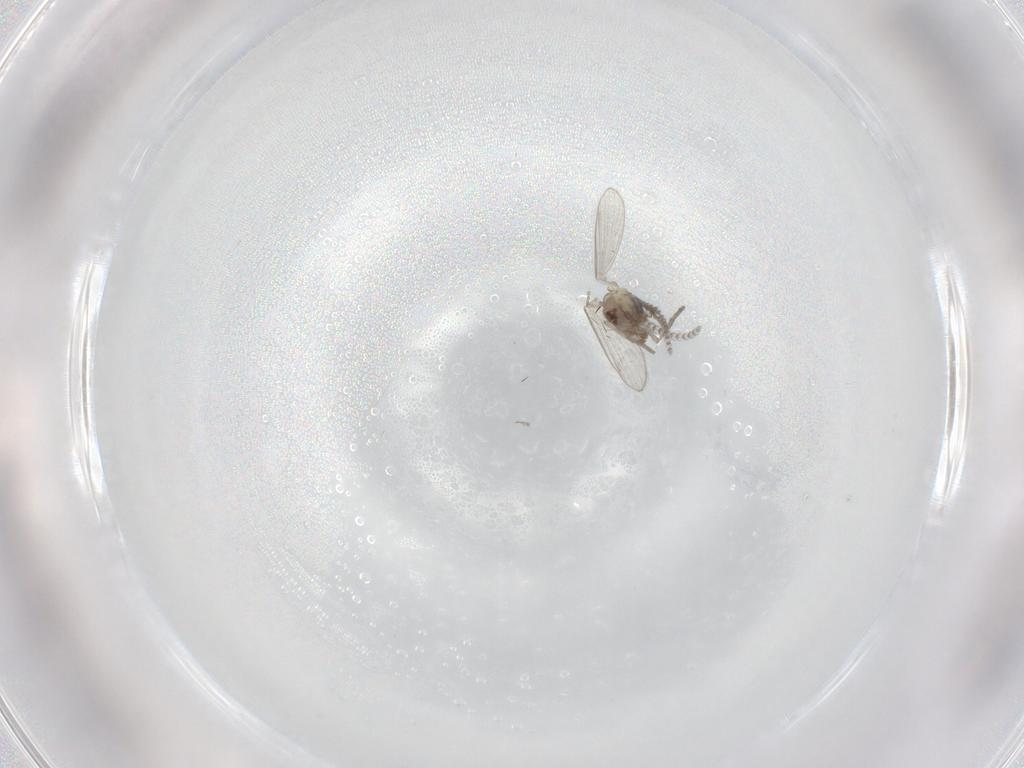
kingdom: Animalia
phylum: Arthropoda
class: Insecta
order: Diptera
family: Psychodidae
